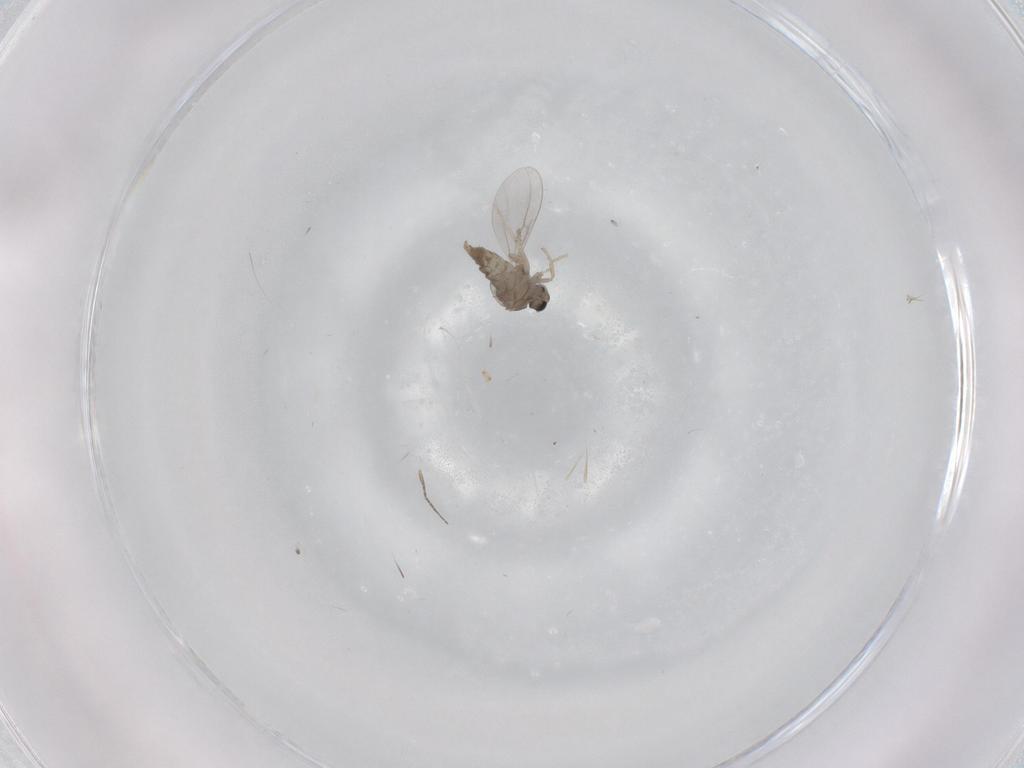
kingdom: Animalia
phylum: Arthropoda
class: Insecta
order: Diptera
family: Cecidomyiidae
